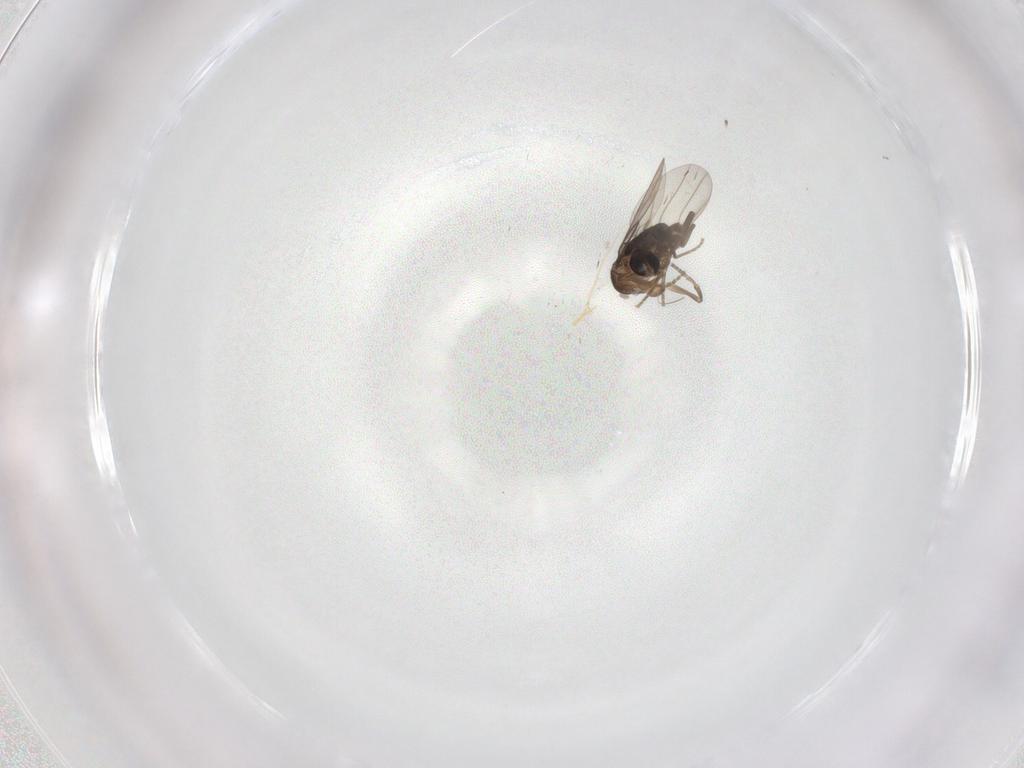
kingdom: Animalia
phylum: Arthropoda
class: Insecta
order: Diptera
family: Chironomidae
